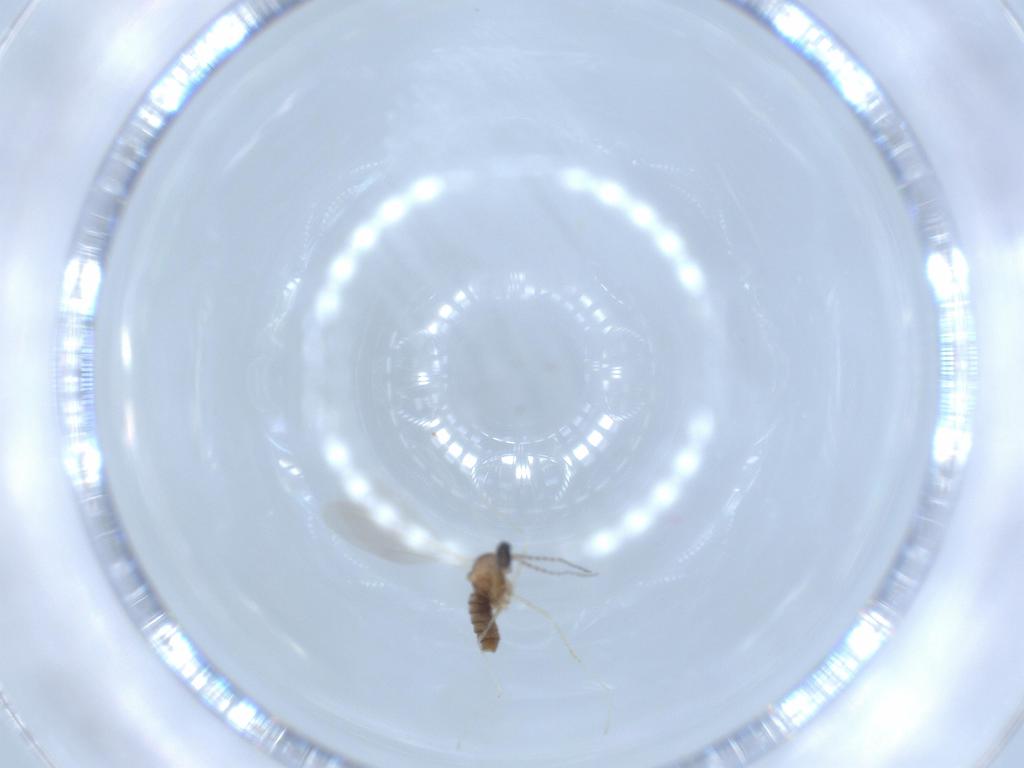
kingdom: Animalia
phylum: Arthropoda
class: Insecta
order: Diptera
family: Cecidomyiidae
